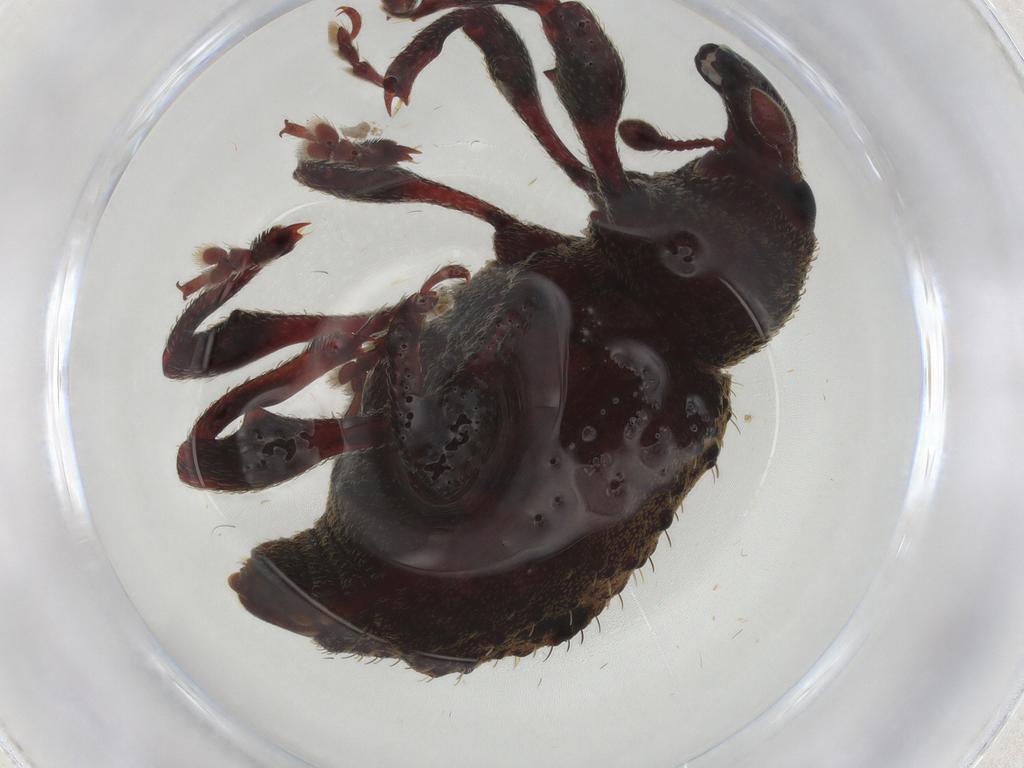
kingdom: Animalia
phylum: Arthropoda
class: Insecta
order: Coleoptera
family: Curculionidae
